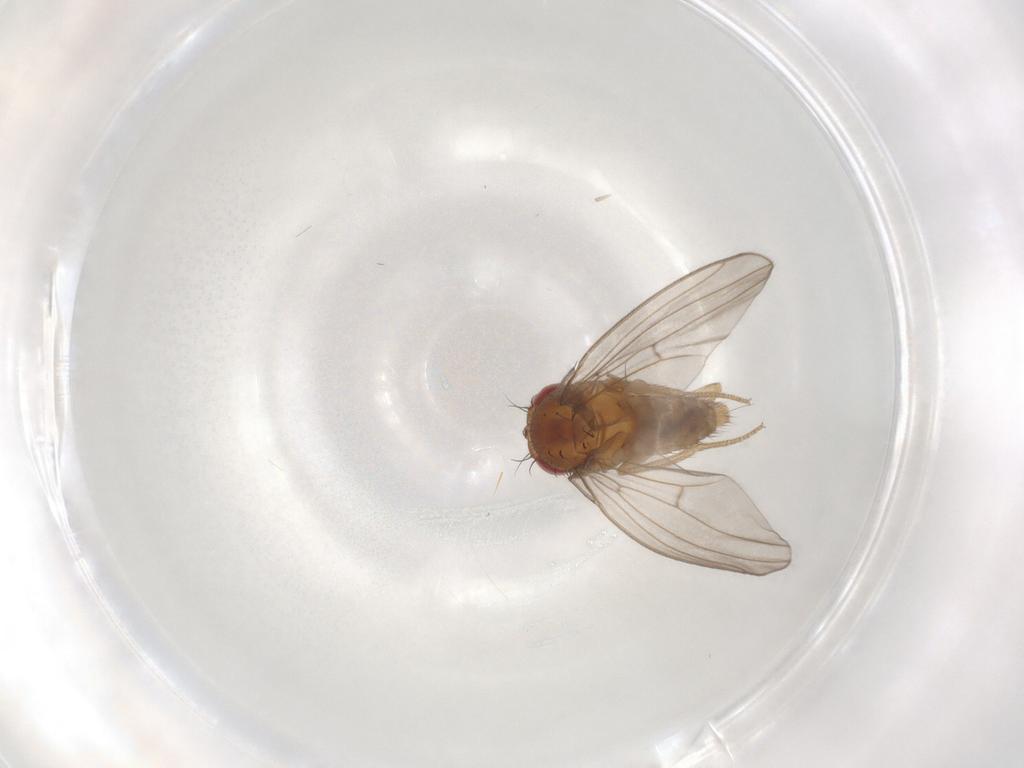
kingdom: Animalia
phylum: Arthropoda
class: Insecta
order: Diptera
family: Drosophilidae
